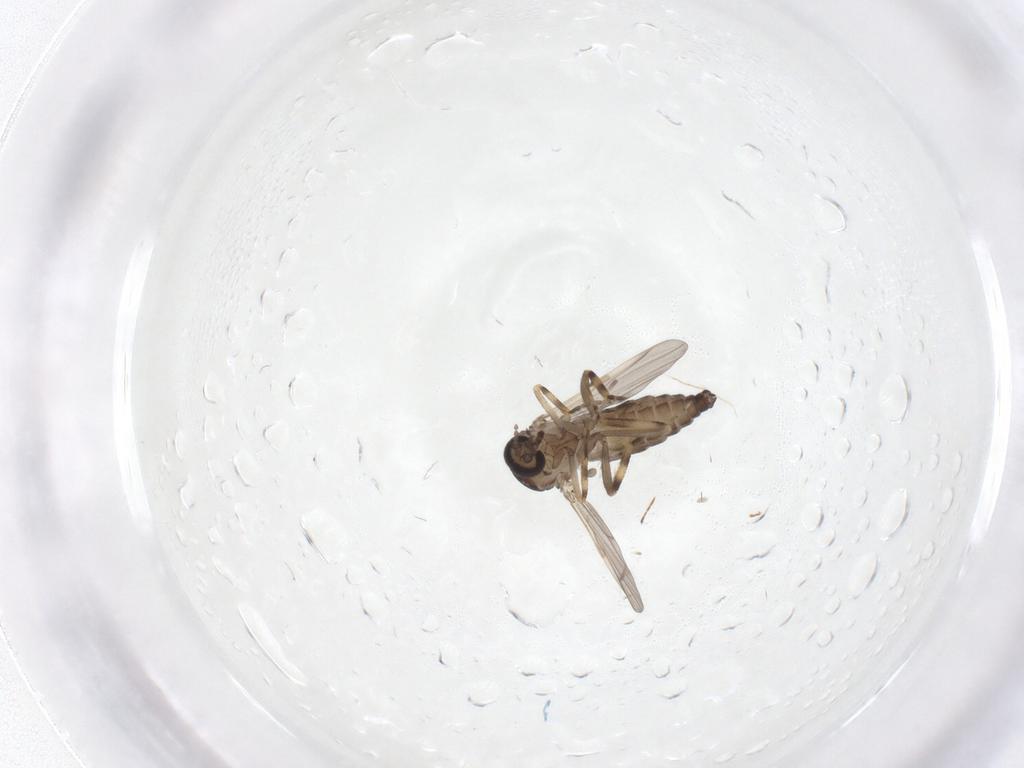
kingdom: Animalia
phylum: Arthropoda
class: Insecta
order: Diptera
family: Ceratopogonidae
